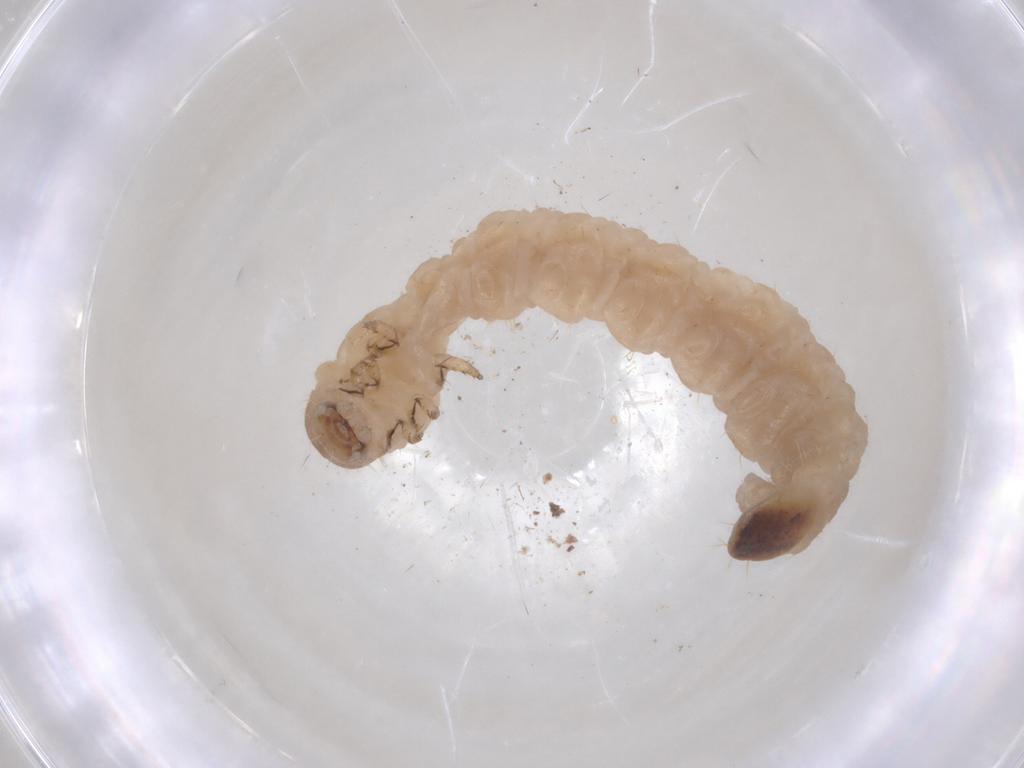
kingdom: Animalia
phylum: Arthropoda
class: Insecta
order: Coleoptera
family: Chrysomelidae
